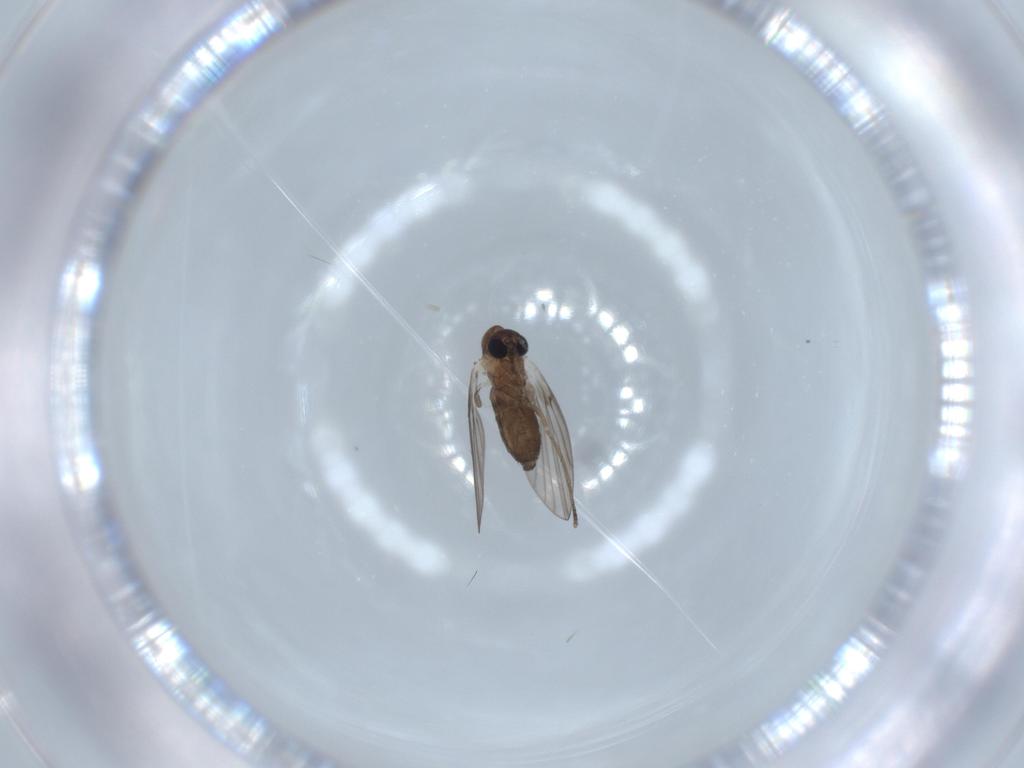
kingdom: Animalia
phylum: Arthropoda
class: Insecta
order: Diptera
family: Psychodidae
